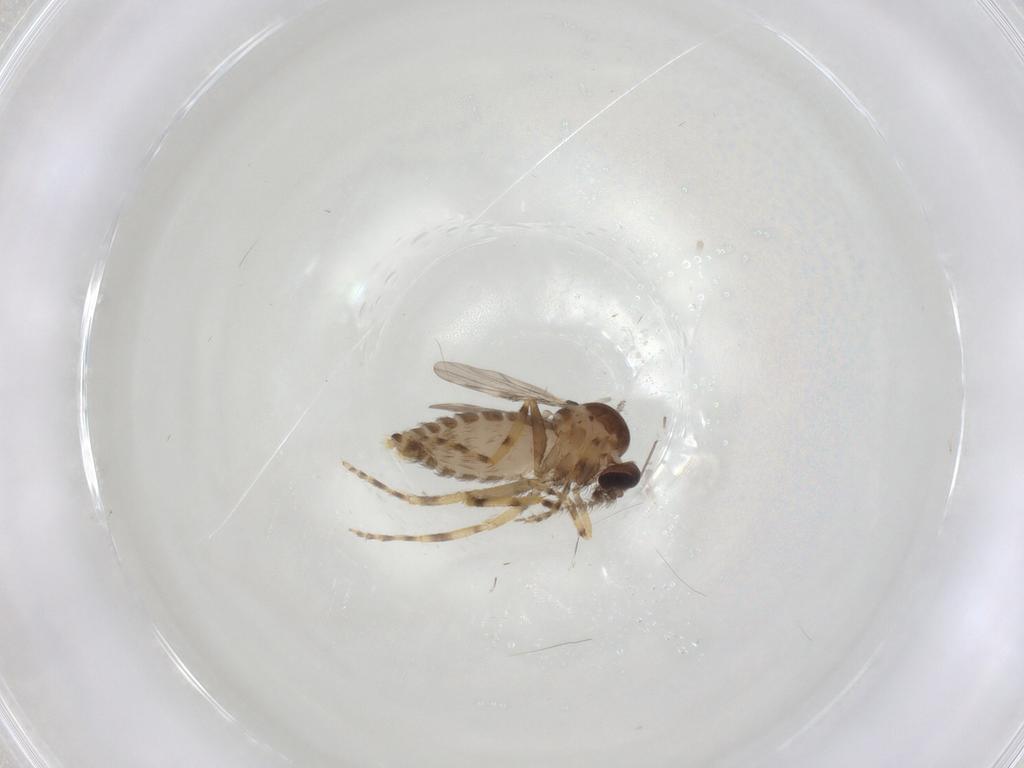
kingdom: Animalia
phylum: Arthropoda
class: Insecta
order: Diptera
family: Ceratopogonidae
